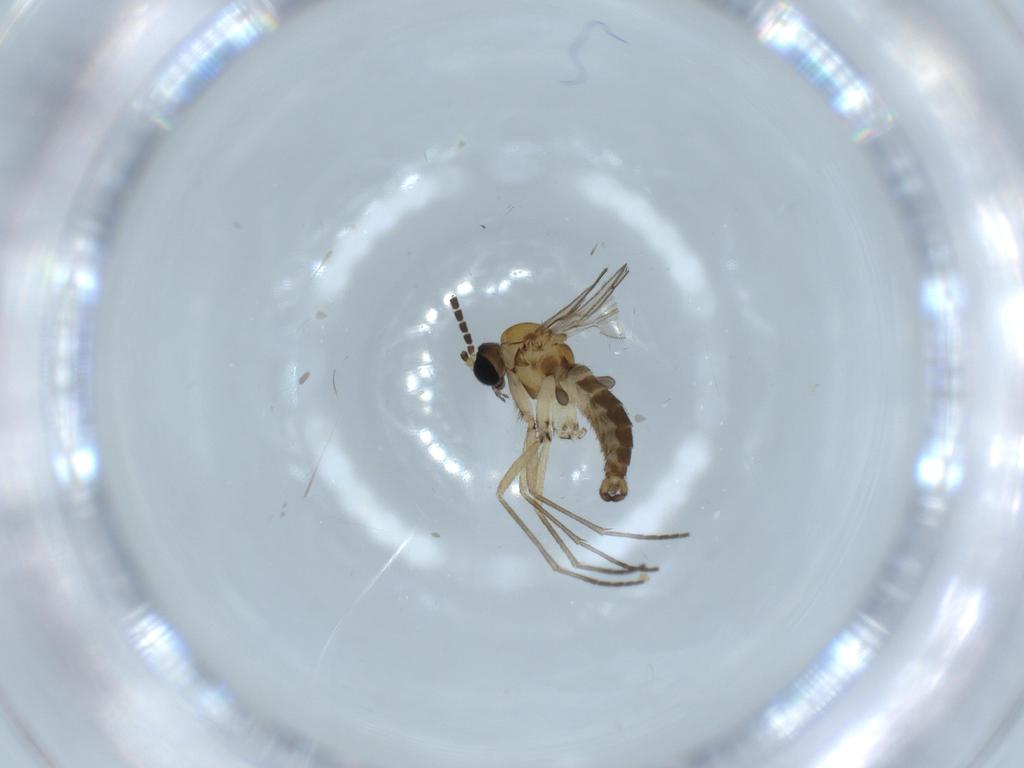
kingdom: Animalia
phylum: Arthropoda
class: Insecta
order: Diptera
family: Sciaridae
